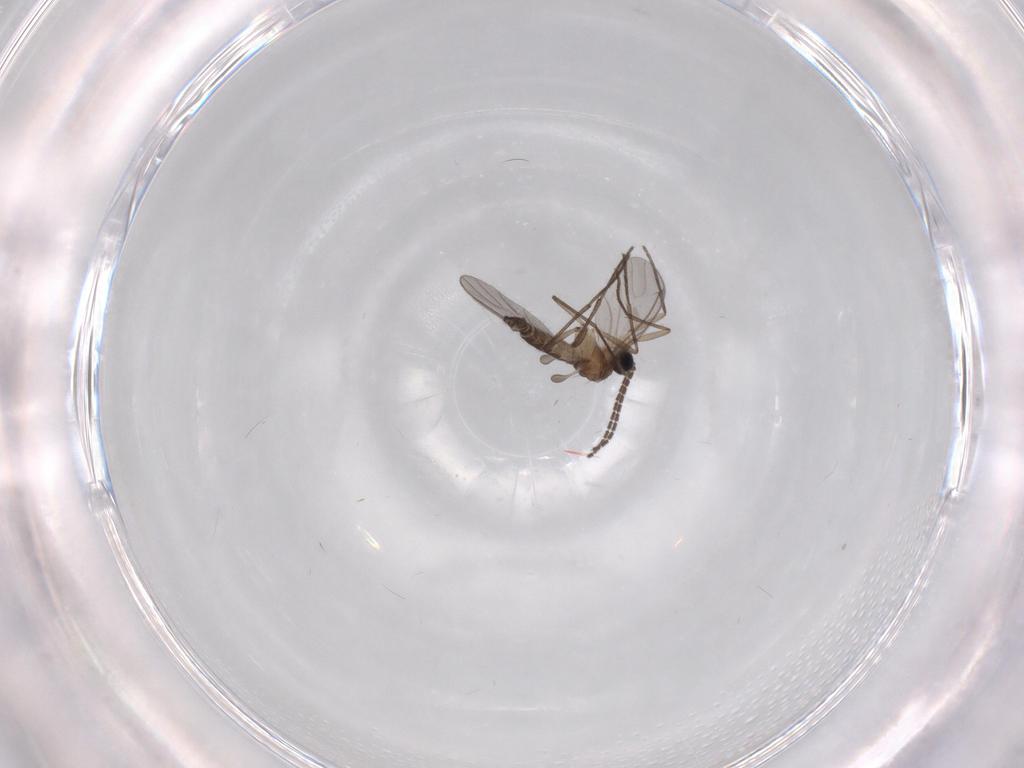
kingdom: Animalia
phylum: Arthropoda
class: Insecta
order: Diptera
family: Sciaridae
